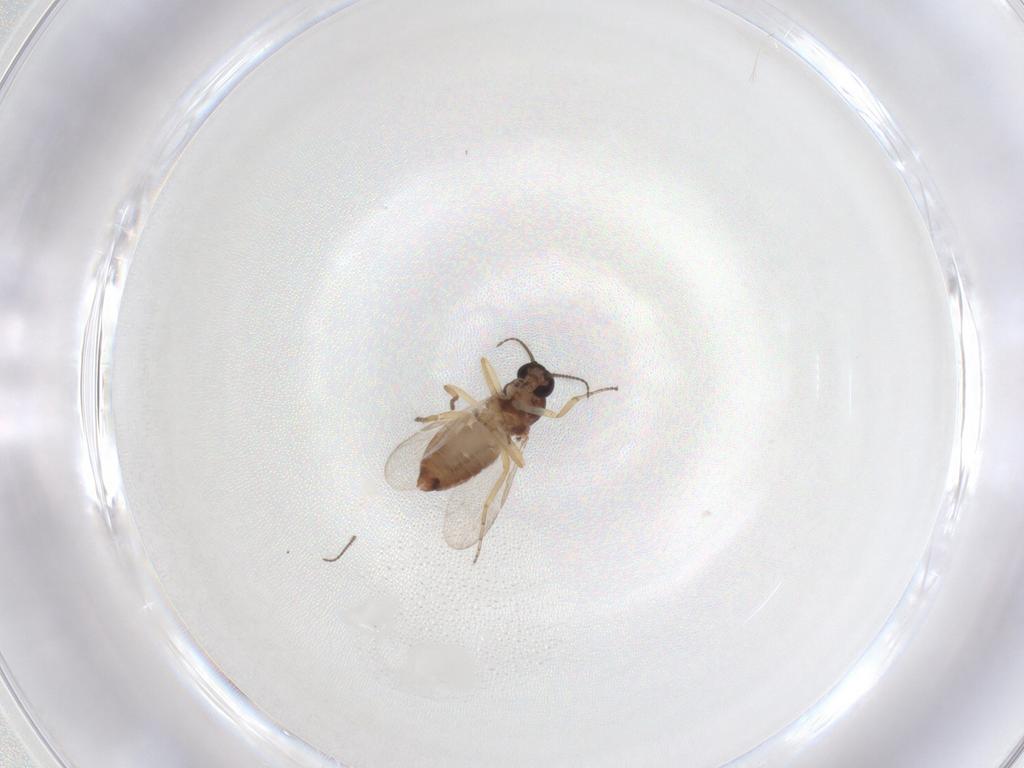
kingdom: Animalia
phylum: Arthropoda
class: Insecta
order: Diptera
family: Ceratopogonidae
